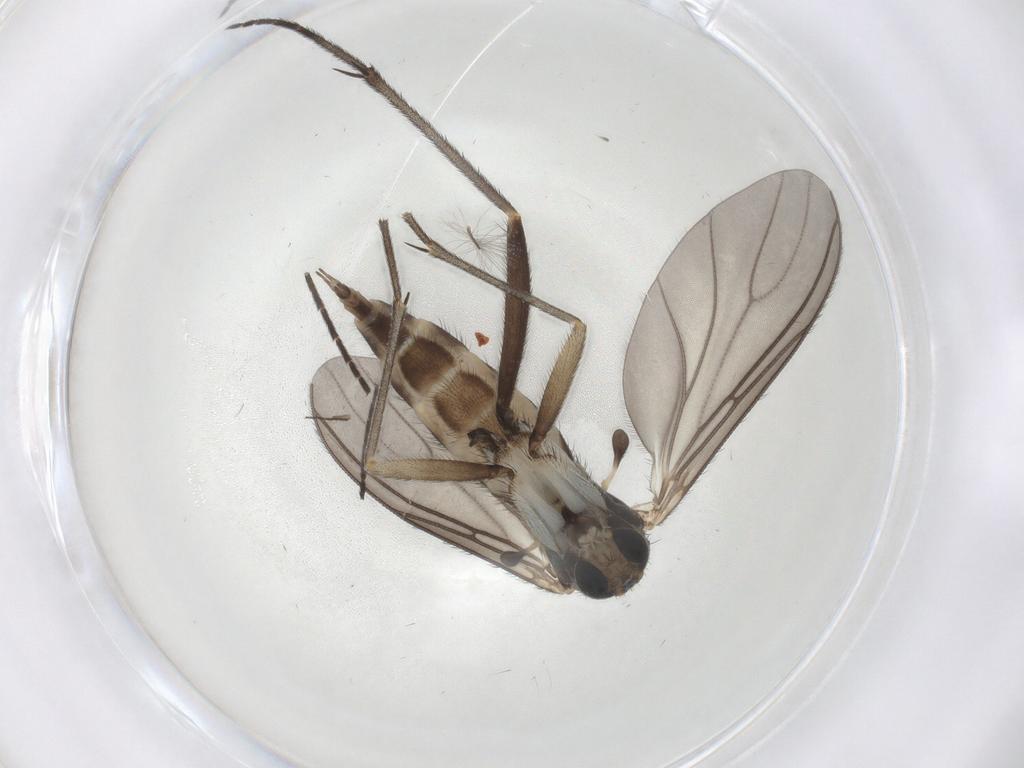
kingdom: Animalia
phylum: Arthropoda
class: Insecta
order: Diptera
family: Sciaridae
